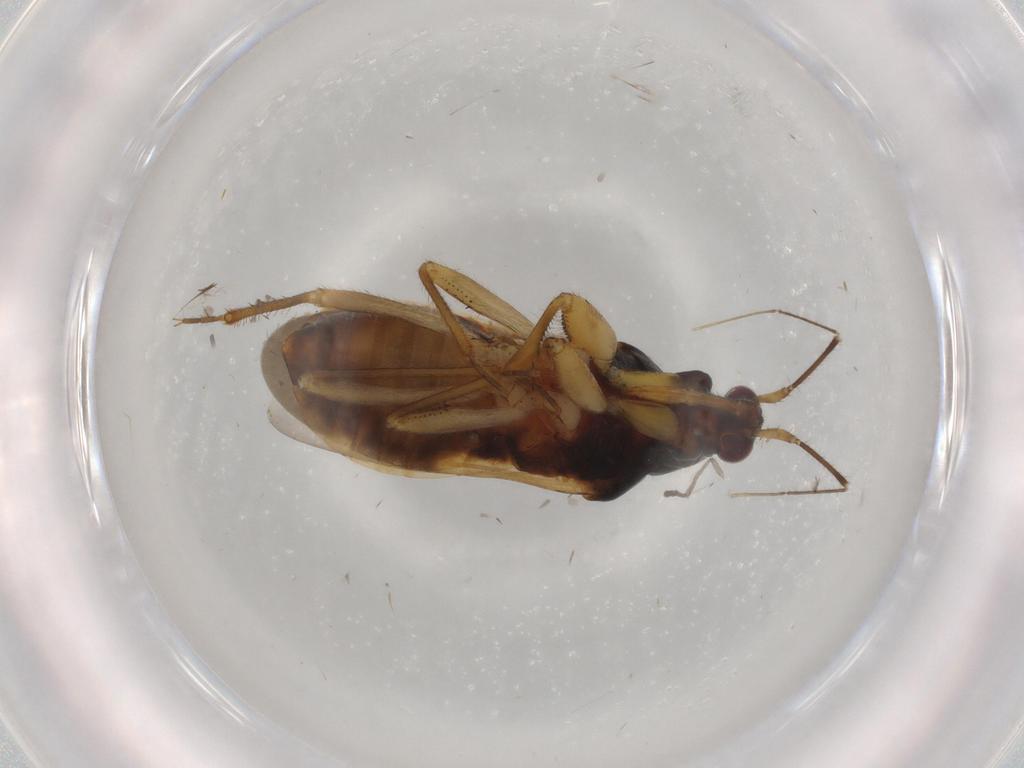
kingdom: Animalia
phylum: Arthropoda
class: Insecta
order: Hemiptera
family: Nabidae
